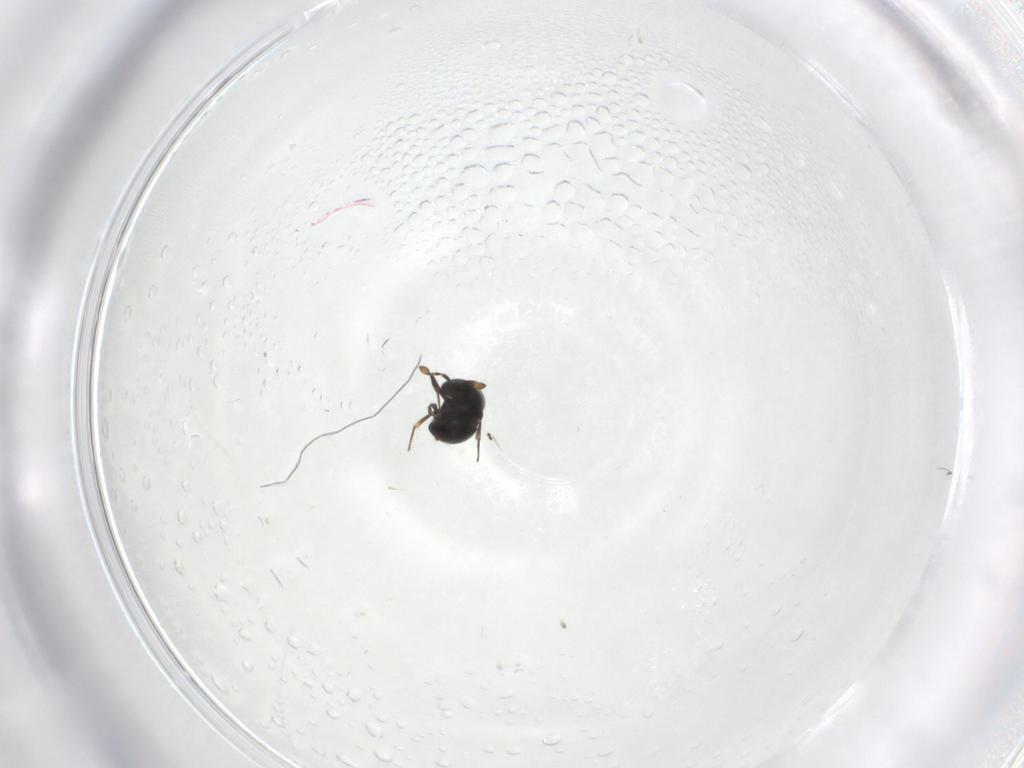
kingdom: Animalia
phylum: Arthropoda
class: Insecta
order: Hymenoptera
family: Scelionidae
